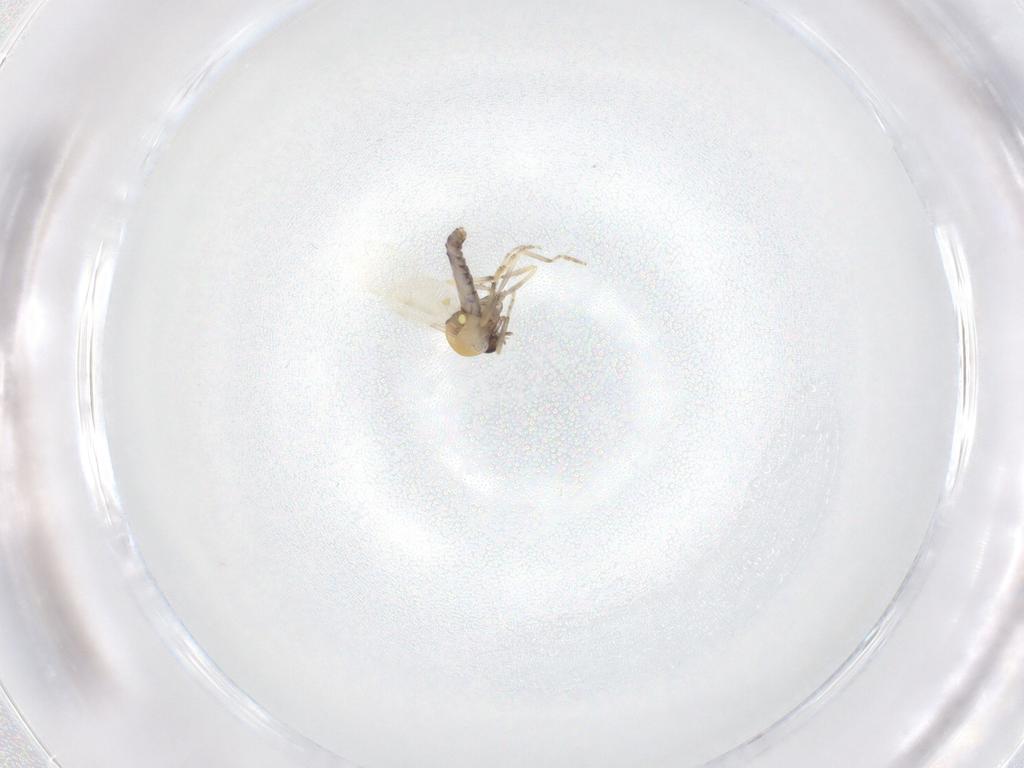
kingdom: Animalia
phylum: Arthropoda
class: Insecta
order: Diptera
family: Ceratopogonidae
